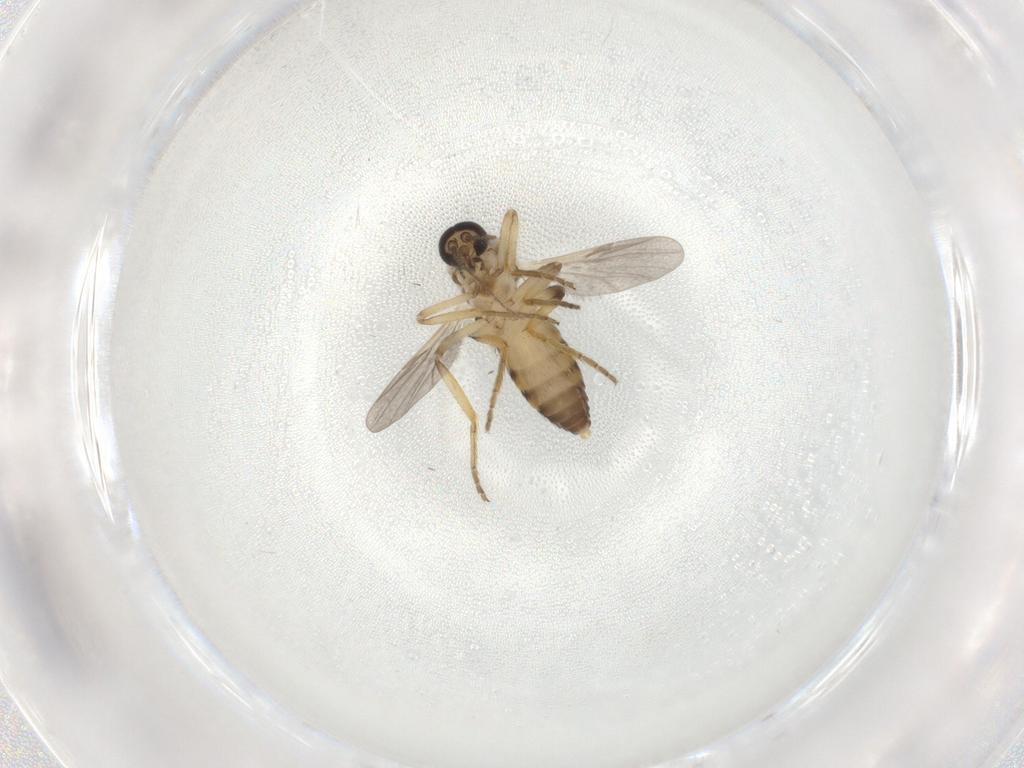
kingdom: Animalia
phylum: Arthropoda
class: Insecta
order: Diptera
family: Ceratopogonidae
